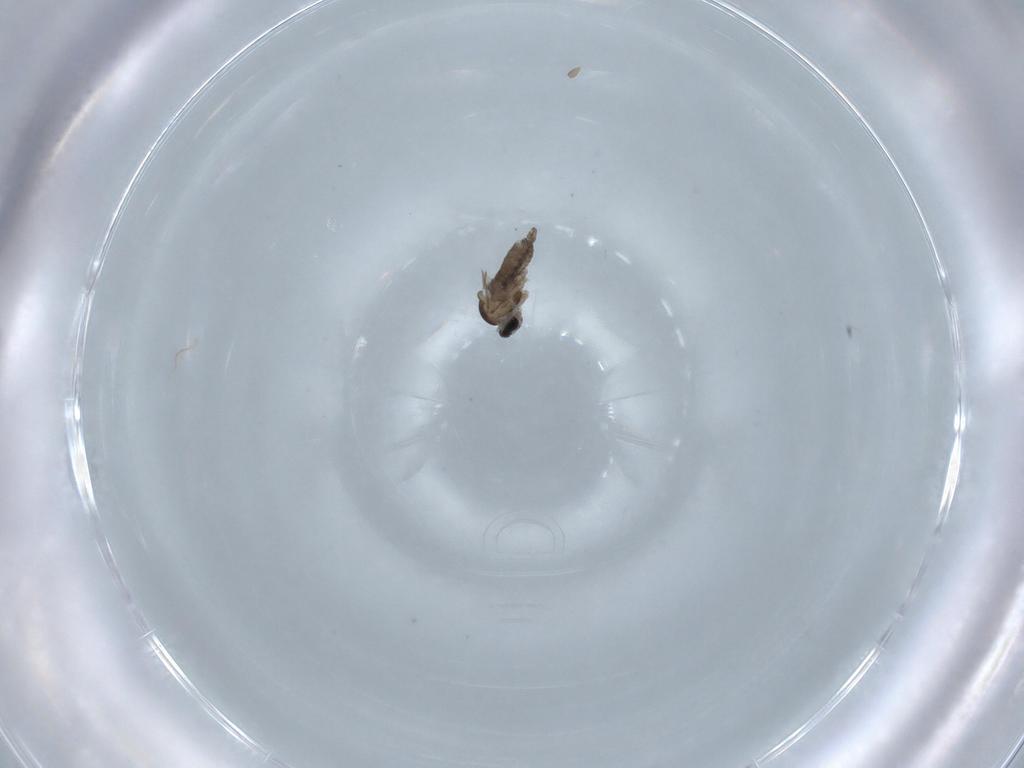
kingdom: Animalia
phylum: Arthropoda
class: Insecta
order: Diptera
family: Cecidomyiidae
